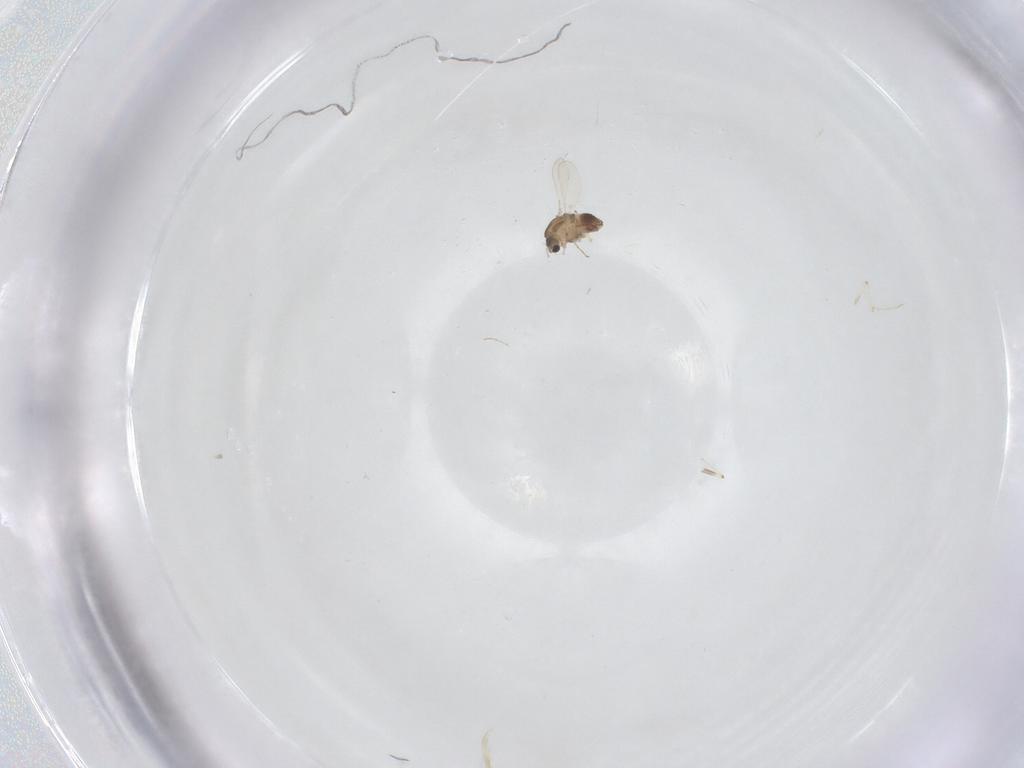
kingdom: Animalia
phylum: Arthropoda
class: Insecta
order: Diptera
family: Chironomidae
